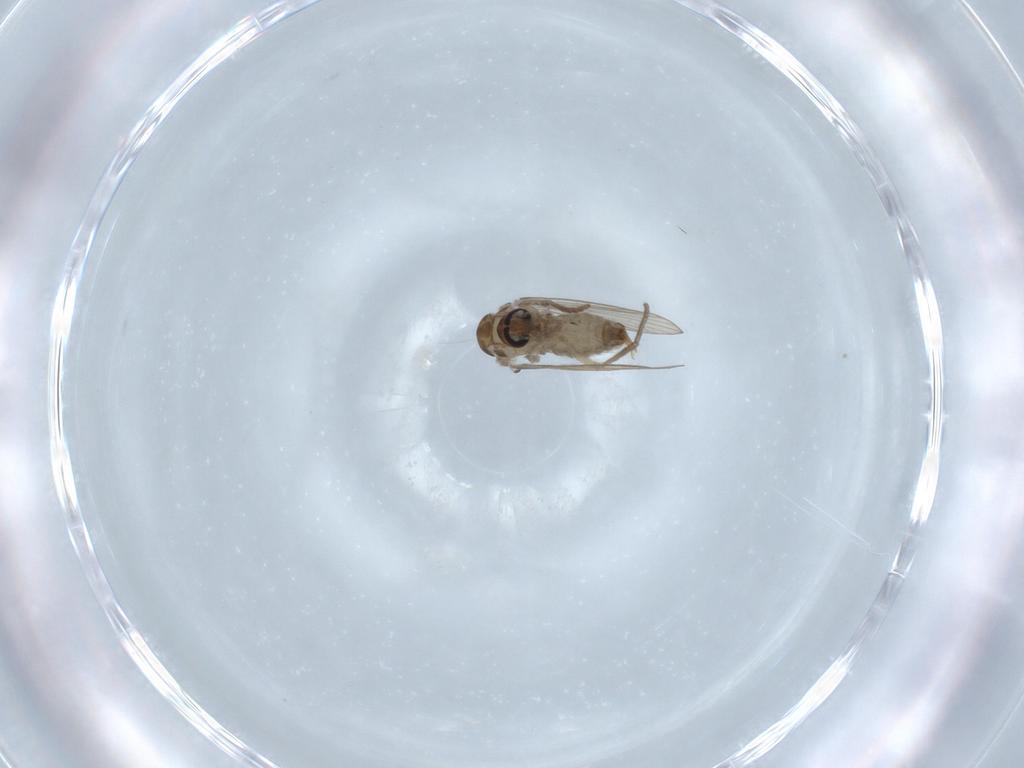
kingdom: Animalia
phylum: Arthropoda
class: Insecta
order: Diptera
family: Psychodidae
